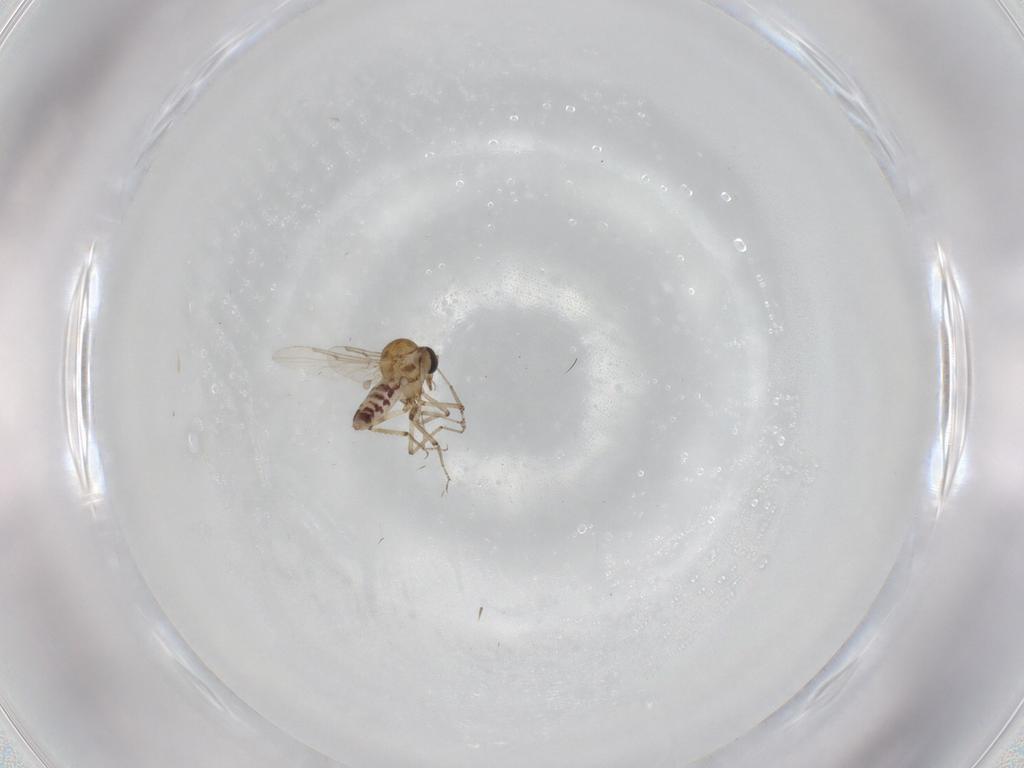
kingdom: Animalia
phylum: Arthropoda
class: Insecta
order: Diptera
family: Ceratopogonidae
